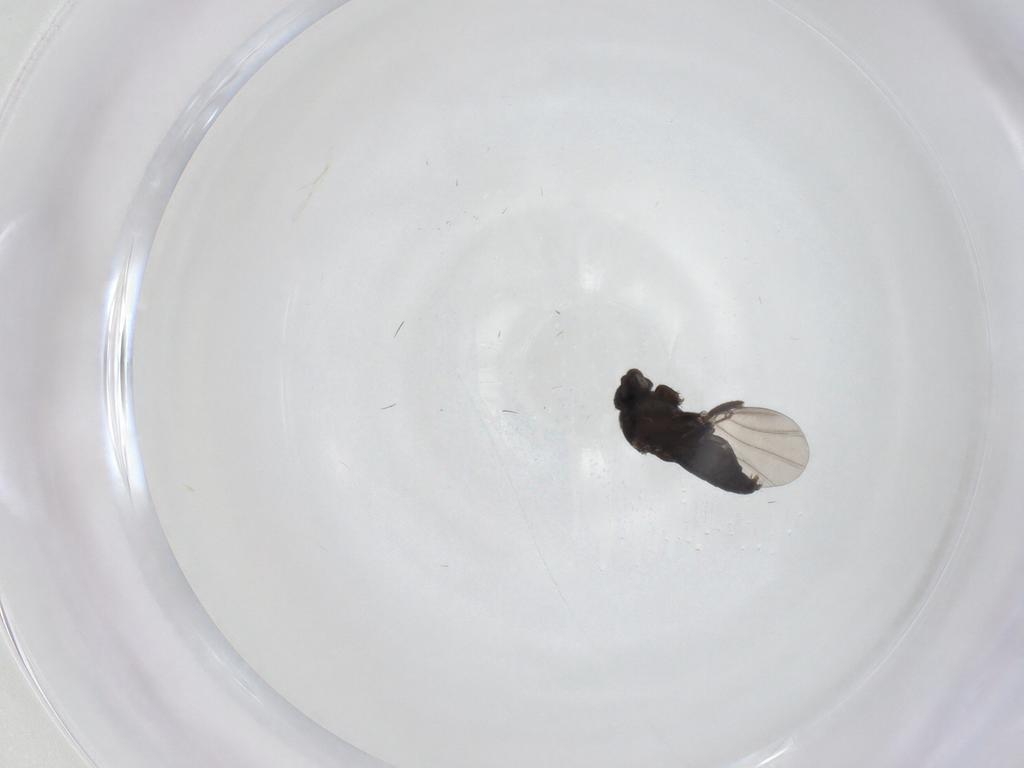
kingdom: Animalia
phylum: Arthropoda
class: Insecta
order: Diptera
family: Phoridae
